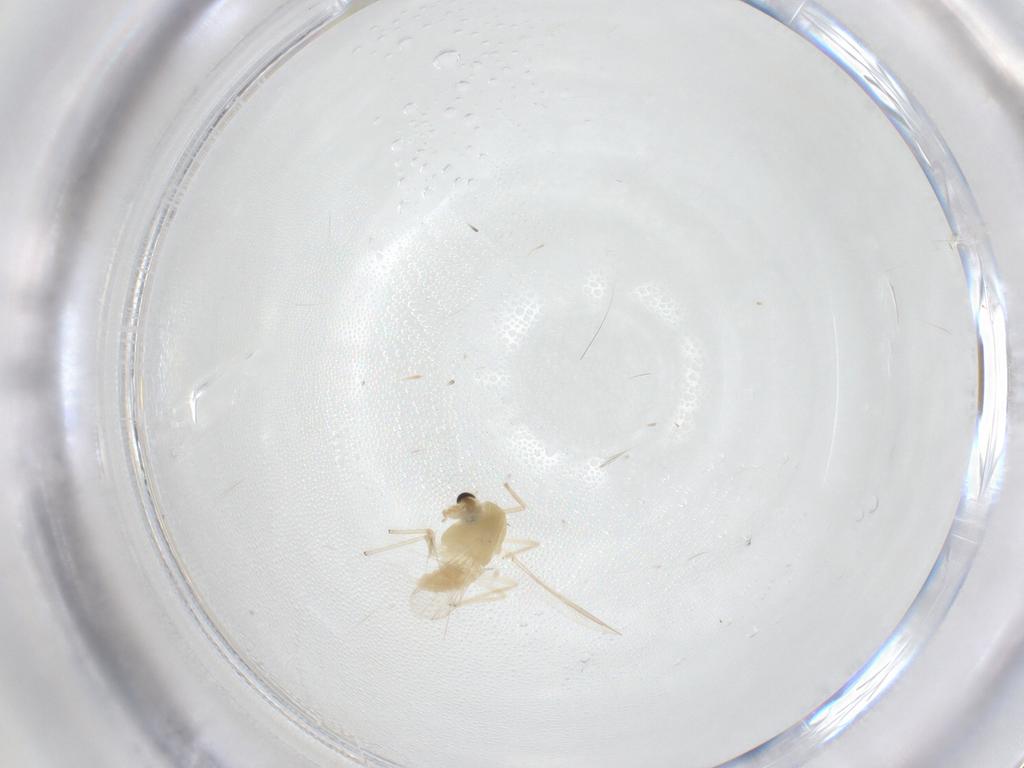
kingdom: Animalia
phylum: Arthropoda
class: Insecta
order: Diptera
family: Chironomidae
